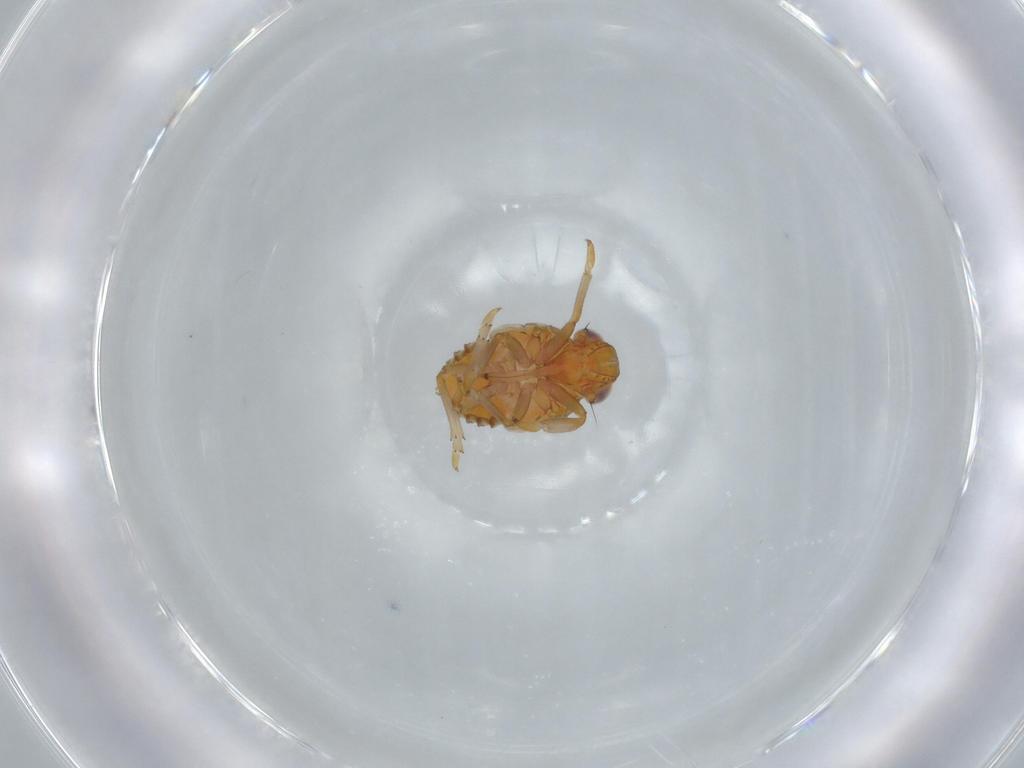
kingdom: Animalia
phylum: Arthropoda
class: Insecta
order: Hemiptera
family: Issidae
